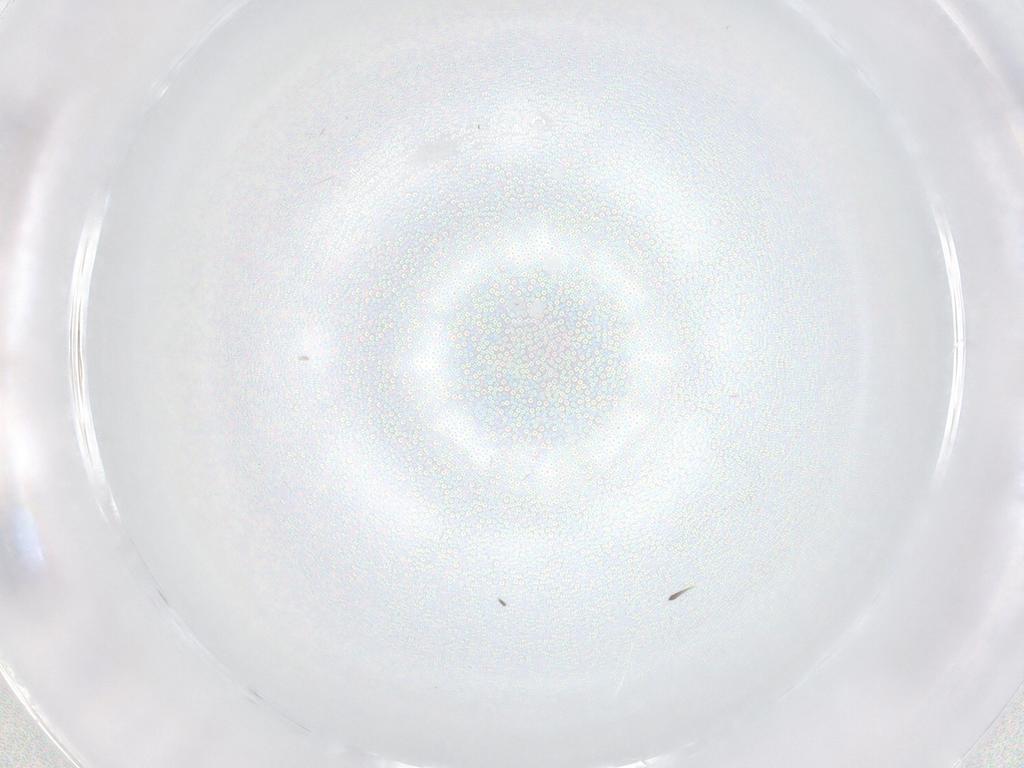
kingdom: Animalia
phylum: Arthropoda
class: Insecta
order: Diptera
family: Phoridae
